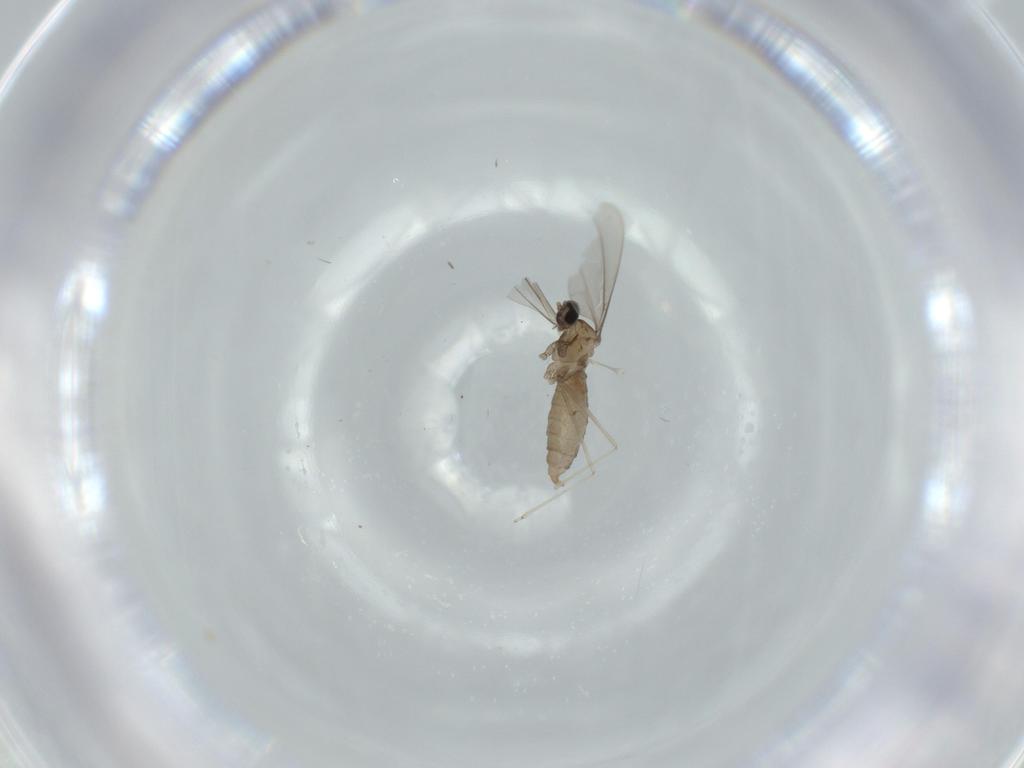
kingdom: Animalia
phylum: Arthropoda
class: Insecta
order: Diptera
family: Cecidomyiidae
